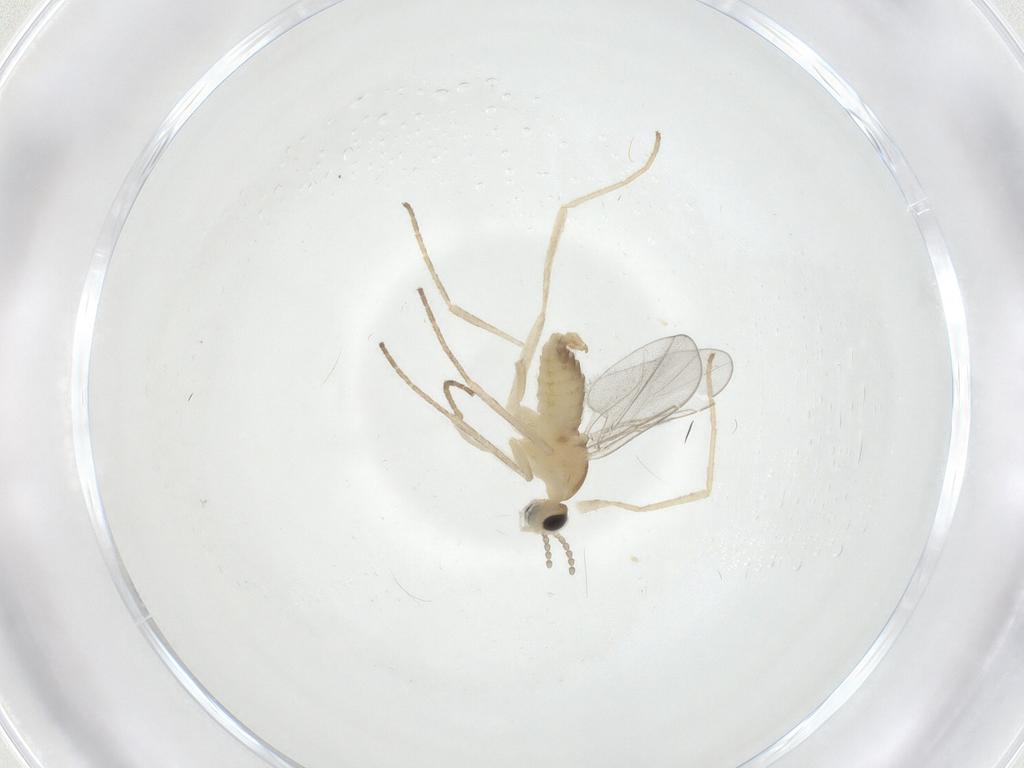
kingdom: Animalia
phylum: Arthropoda
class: Insecta
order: Diptera
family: Cecidomyiidae
